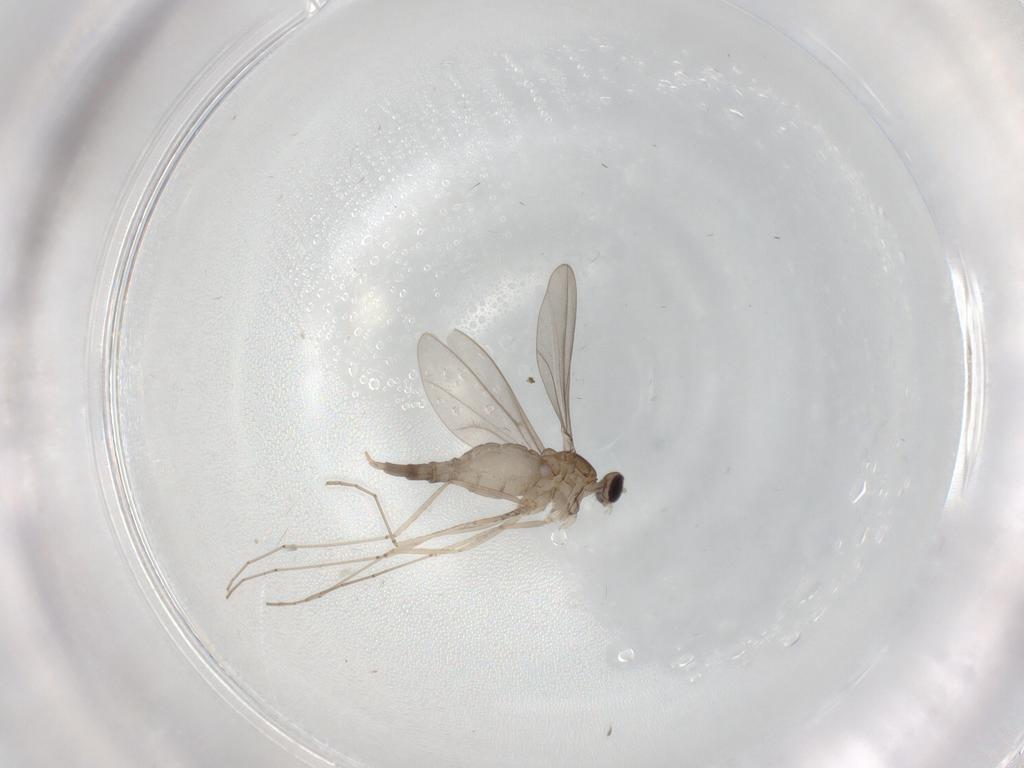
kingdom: Animalia
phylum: Arthropoda
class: Insecta
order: Diptera
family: Cecidomyiidae
